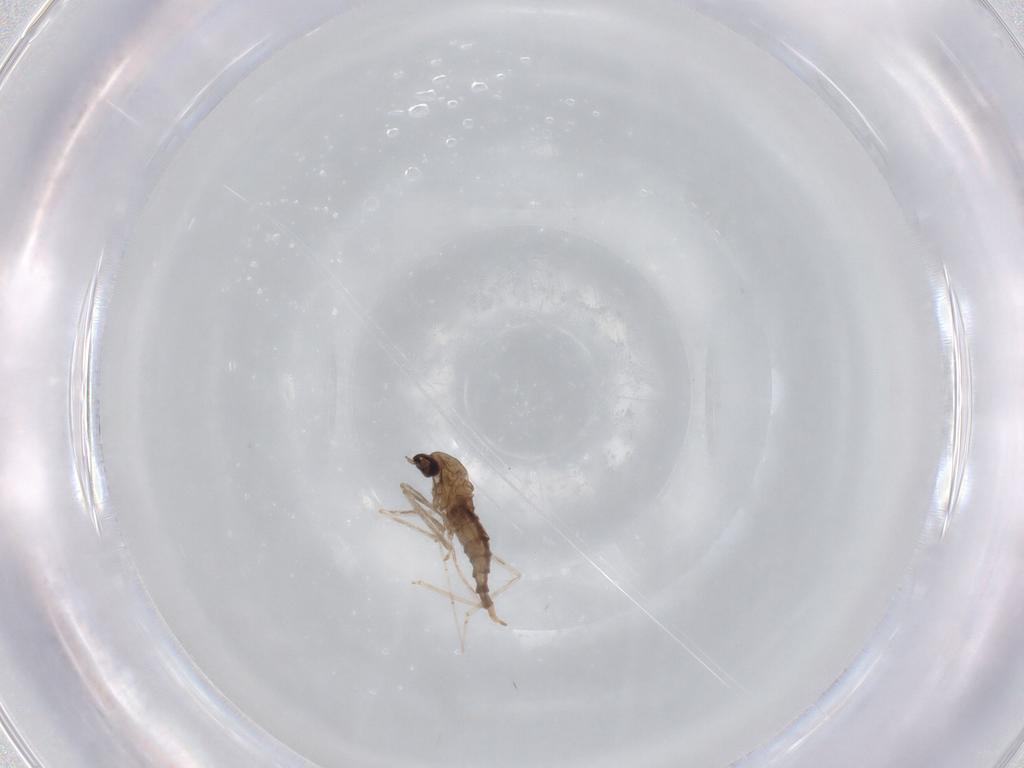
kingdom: Animalia
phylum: Arthropoda
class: Insecta
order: Diptera
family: Cecidomyiidae
